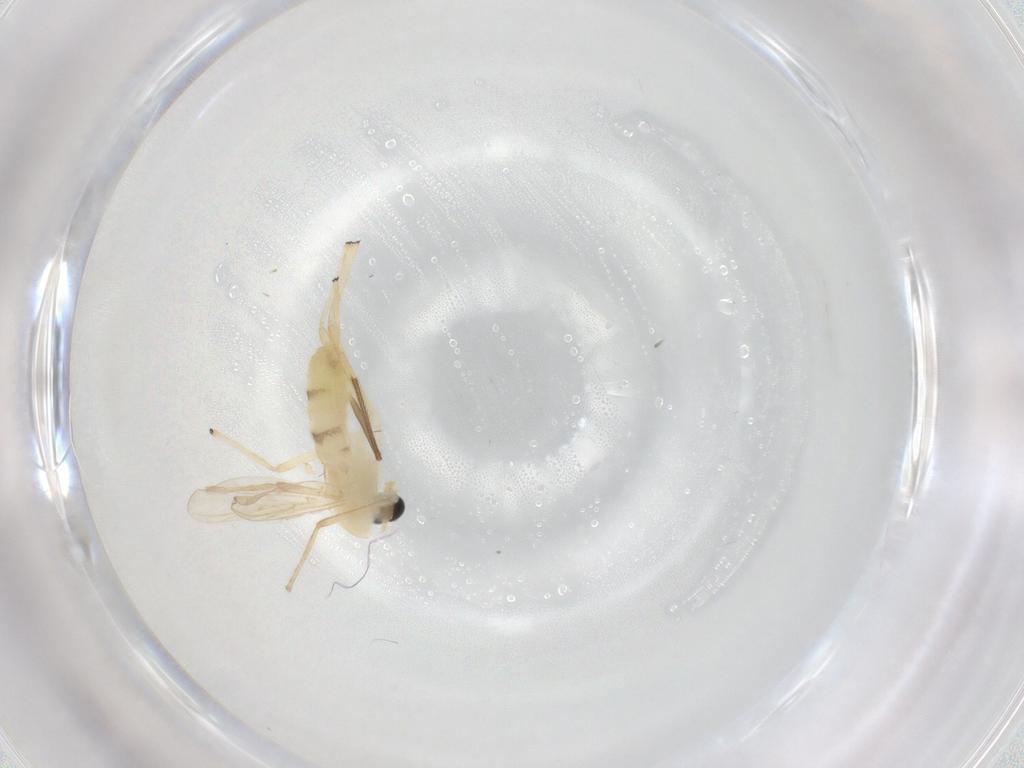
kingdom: Animalia
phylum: Arthropoda
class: Insecta
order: Diptera
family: Chironomidae
